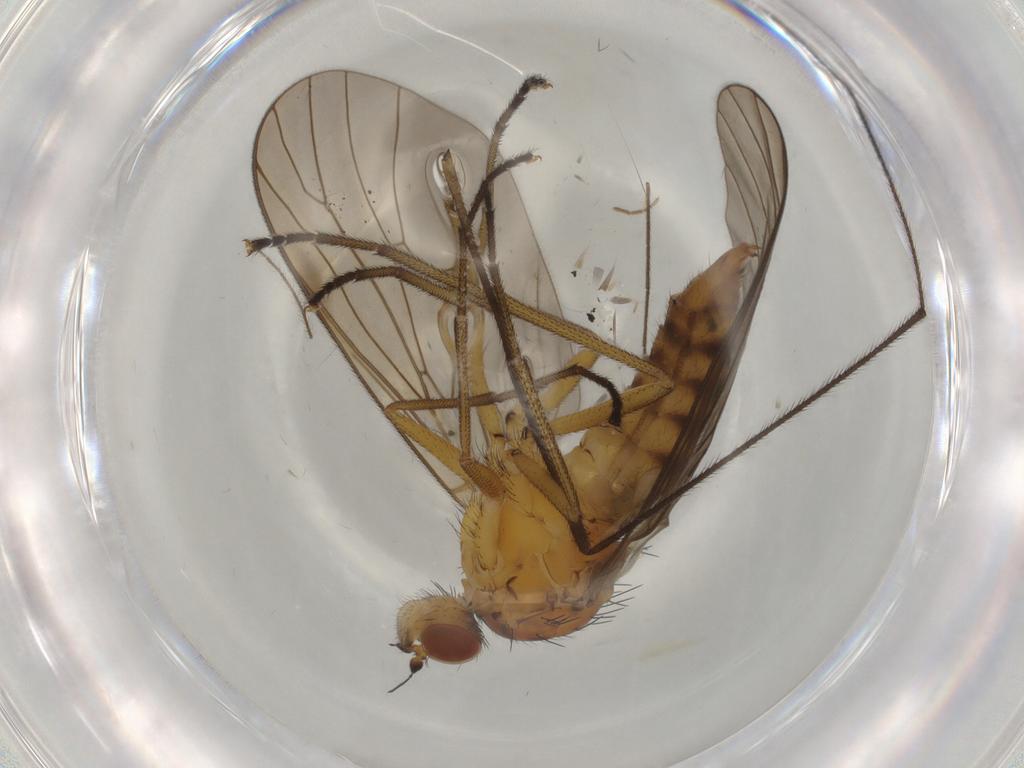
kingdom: Animalia
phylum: Arthropoda
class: Insecta
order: Diptera
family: Brachystomatidae
